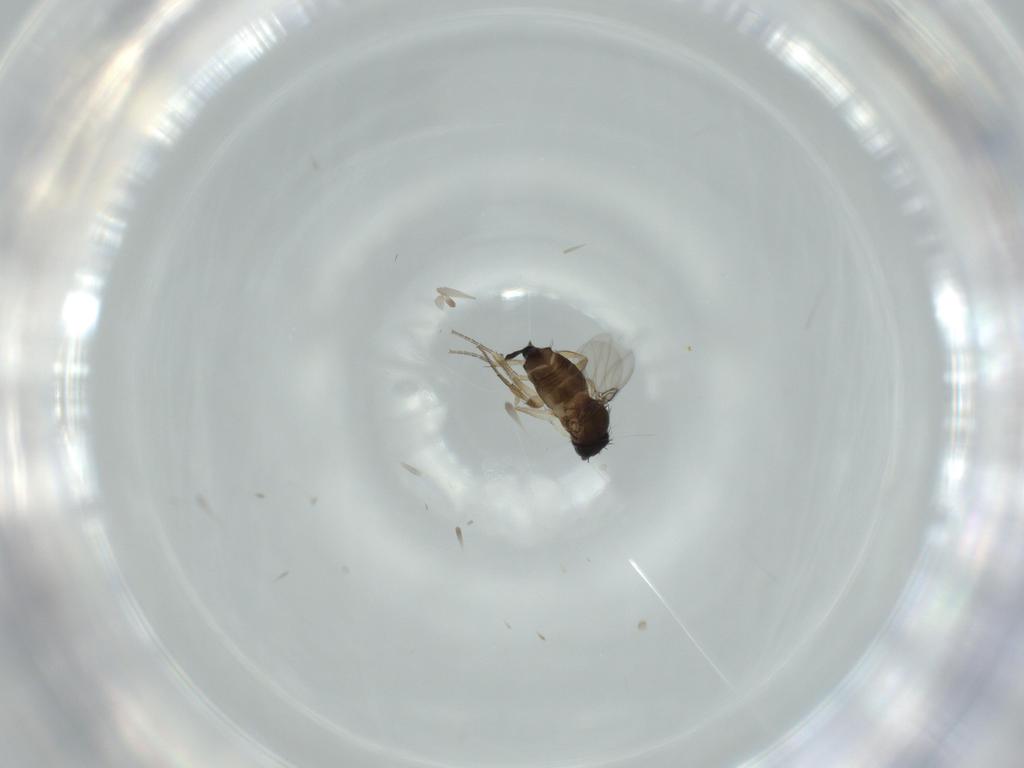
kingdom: Animalia
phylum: Arthropoda
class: Insecta
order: Diptera
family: Phoridae
